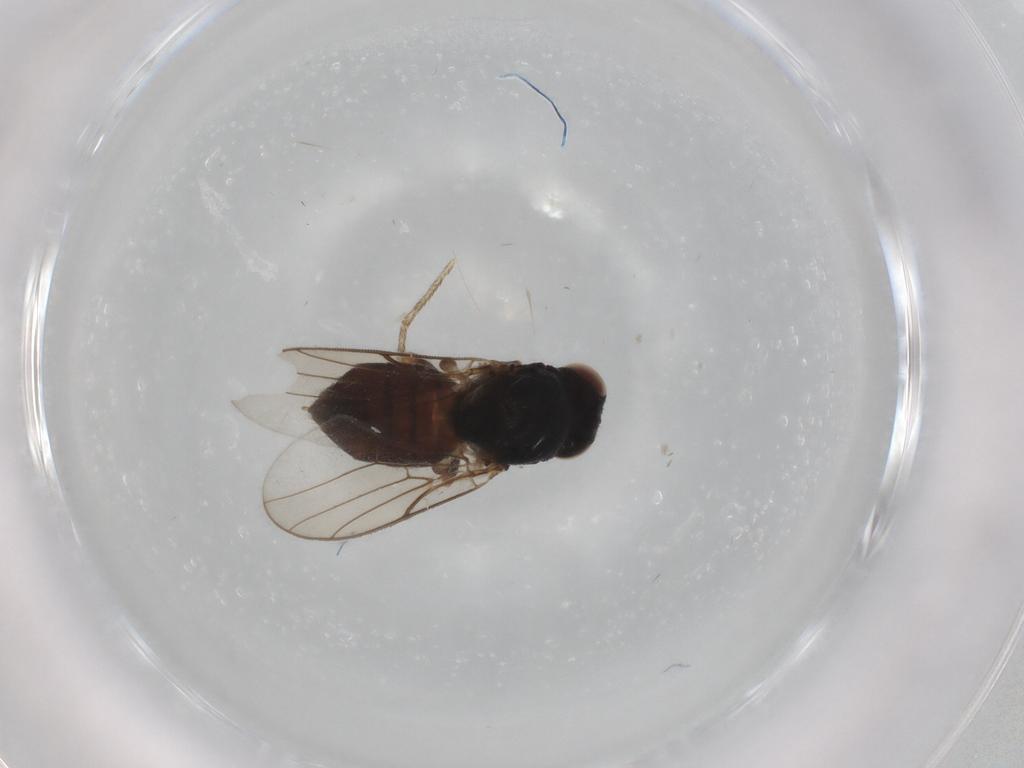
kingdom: Animalia
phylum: Arthropoda
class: Insecta
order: Diptera
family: Chloropidae
